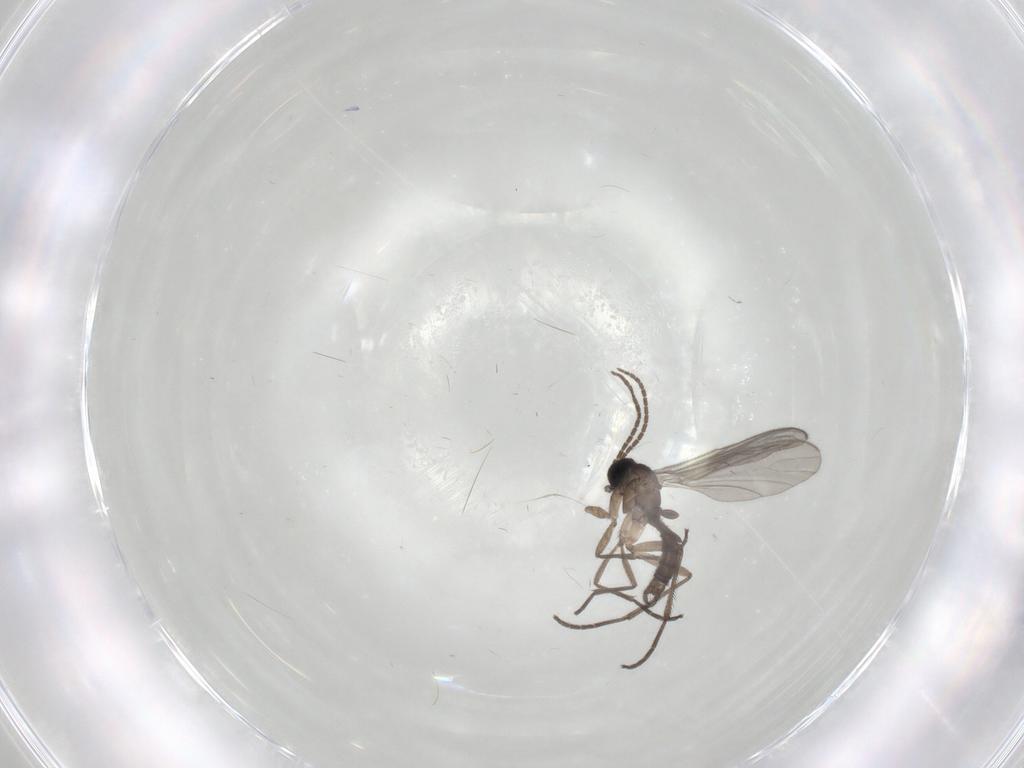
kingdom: Animalia
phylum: Arthropoda
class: Insecta
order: Diptera
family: Sciaridae
